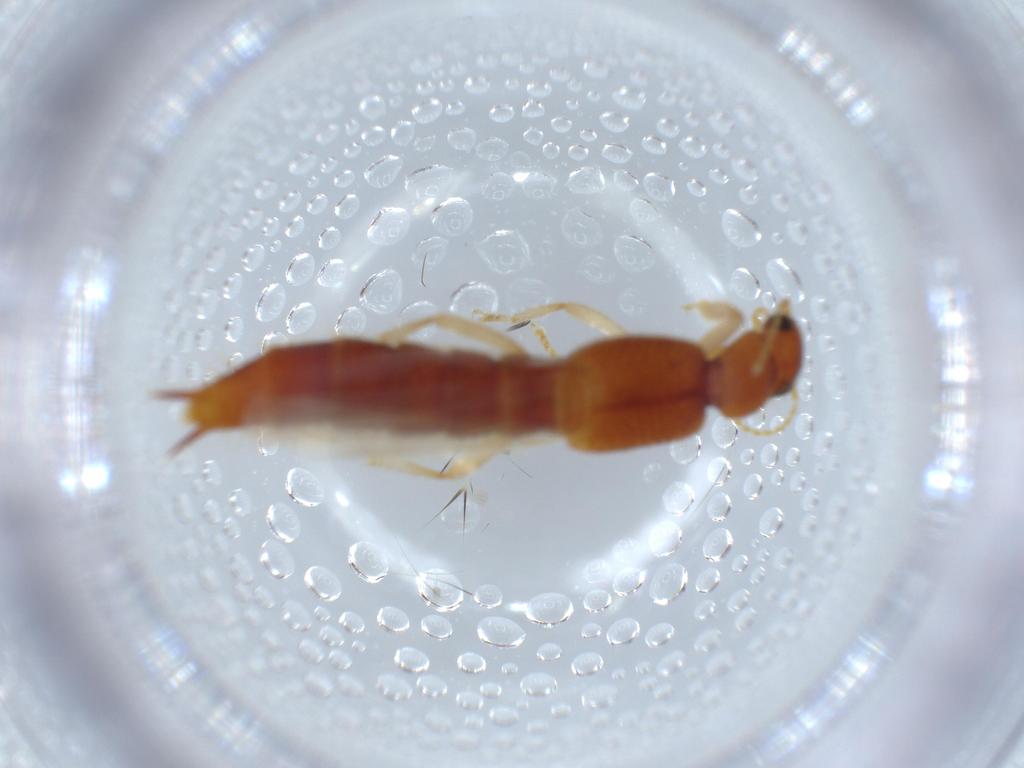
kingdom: Animalia
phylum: Arthropoda
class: Insecta
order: Coleoptera
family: Staphylinidae
